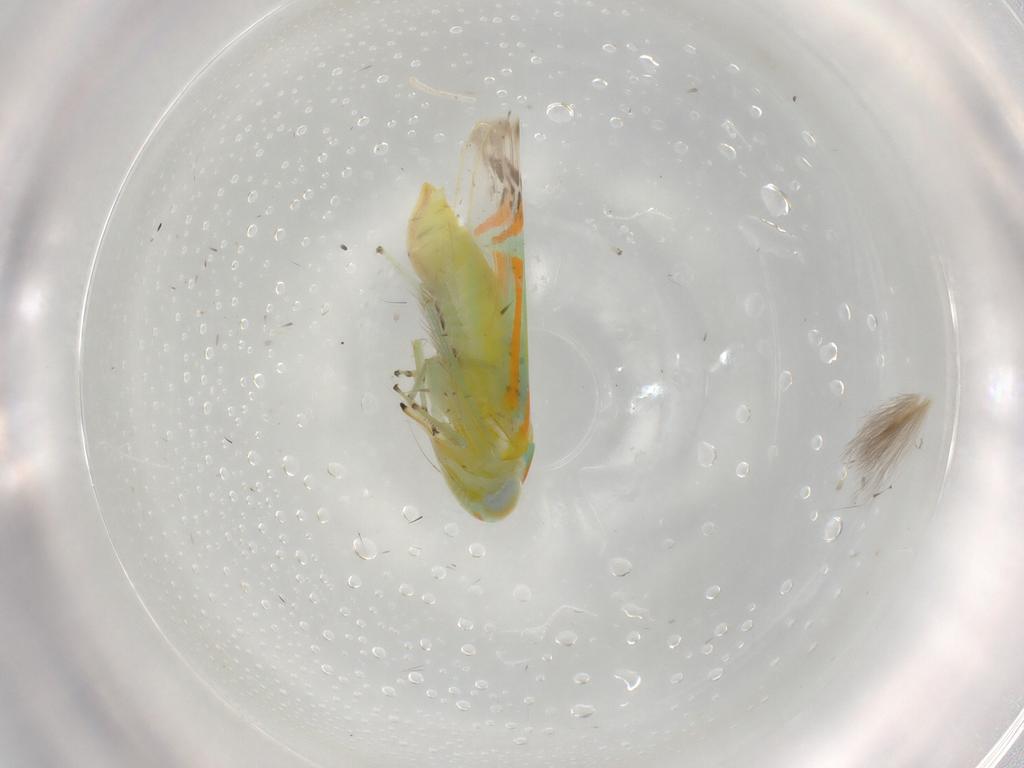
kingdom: Animalia
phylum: Arthropoda
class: Insecta
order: Hemiptera
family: Cicadellidae
